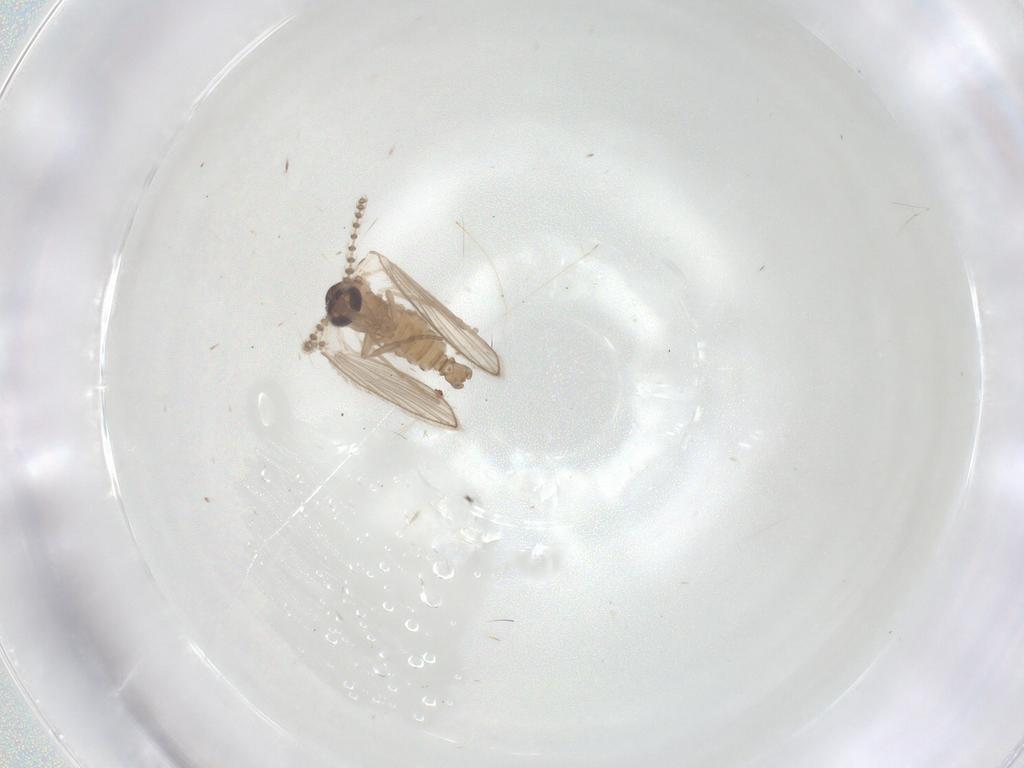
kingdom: Animalia
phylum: Arthropoda
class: Insecta
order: Diptera
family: Psychodidae
